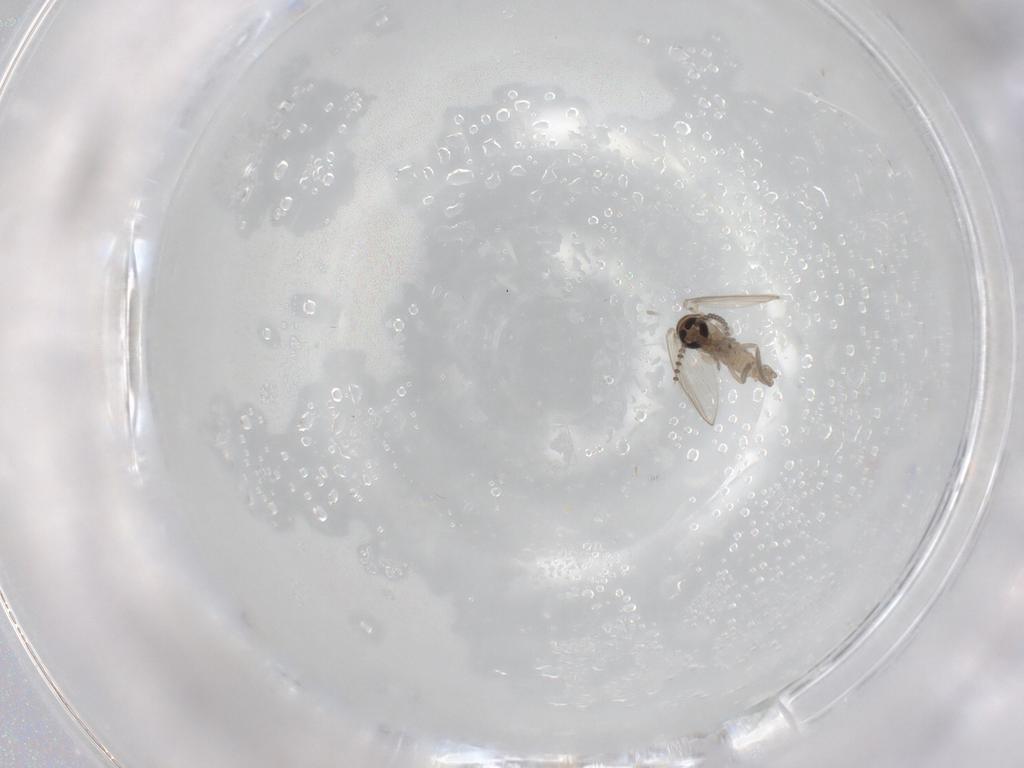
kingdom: Animalia
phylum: Arthropoda
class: Insecta
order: Diptera
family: Psychodidae
